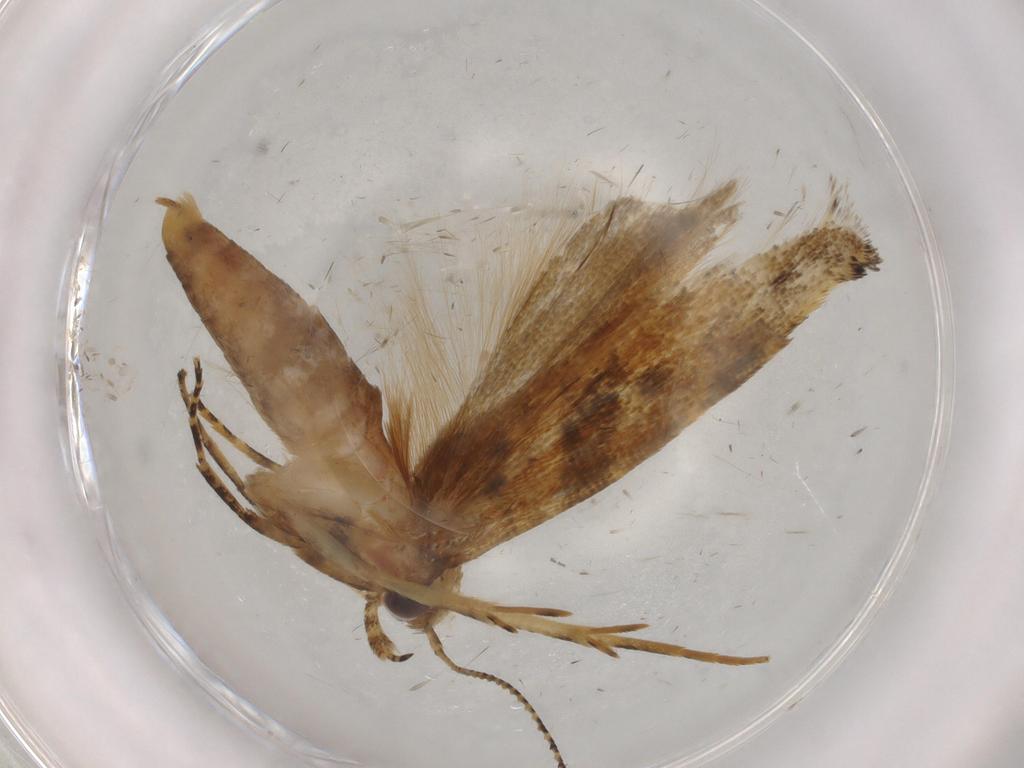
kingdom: Animalia
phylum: Arthropoda
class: Insecta
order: Lepidoptera
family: Gelechiidae
